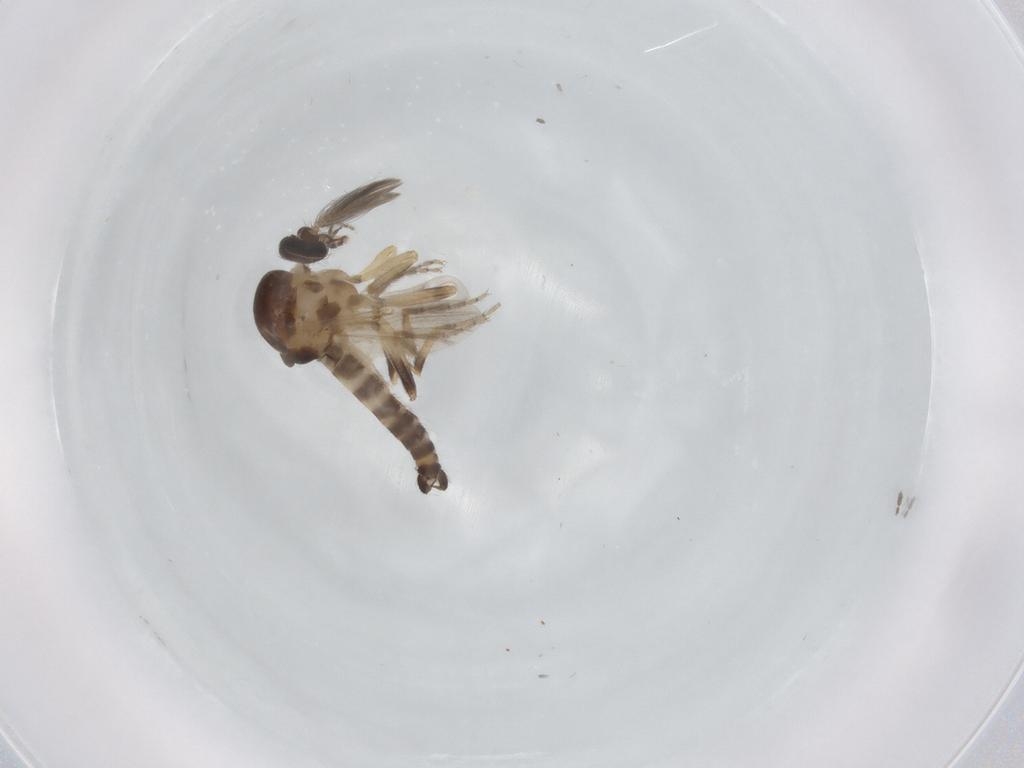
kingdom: Animalia
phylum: Arthropoda
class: Insecta
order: Diptera
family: Ceratopogonidae
